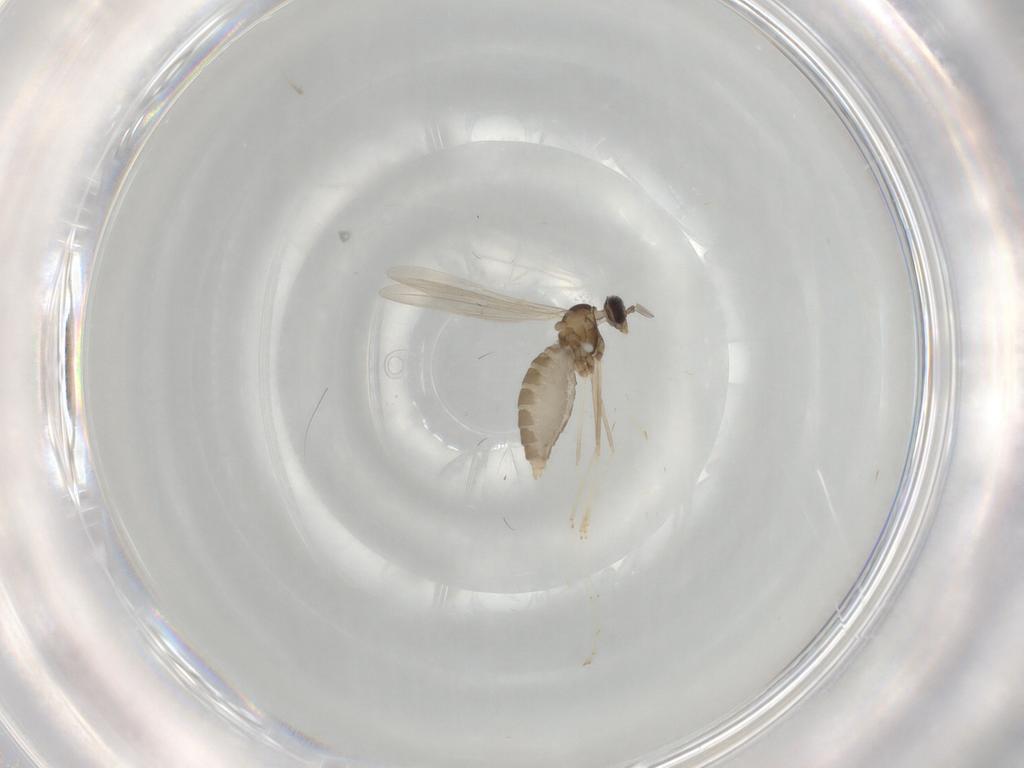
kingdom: Animalia
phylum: Arthropoda
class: Insecta
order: Diptera
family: Cecidomyiidae
